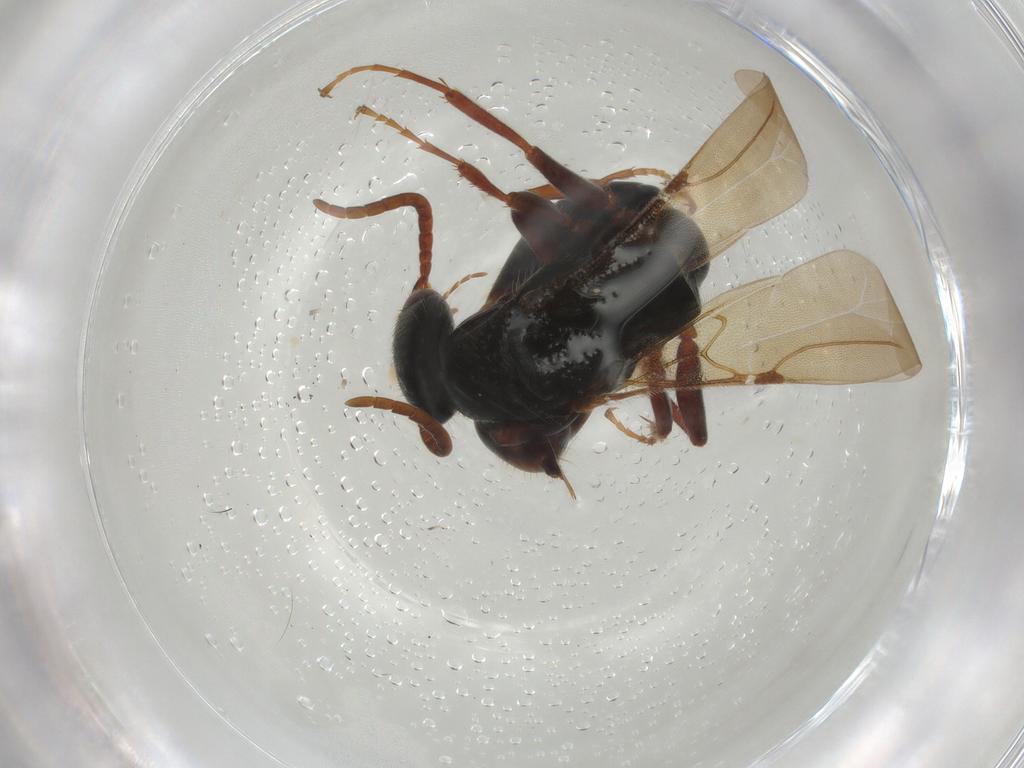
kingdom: Animalia
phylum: Arthropoda
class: Insecta
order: Hymenoptera
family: Bethylidae
